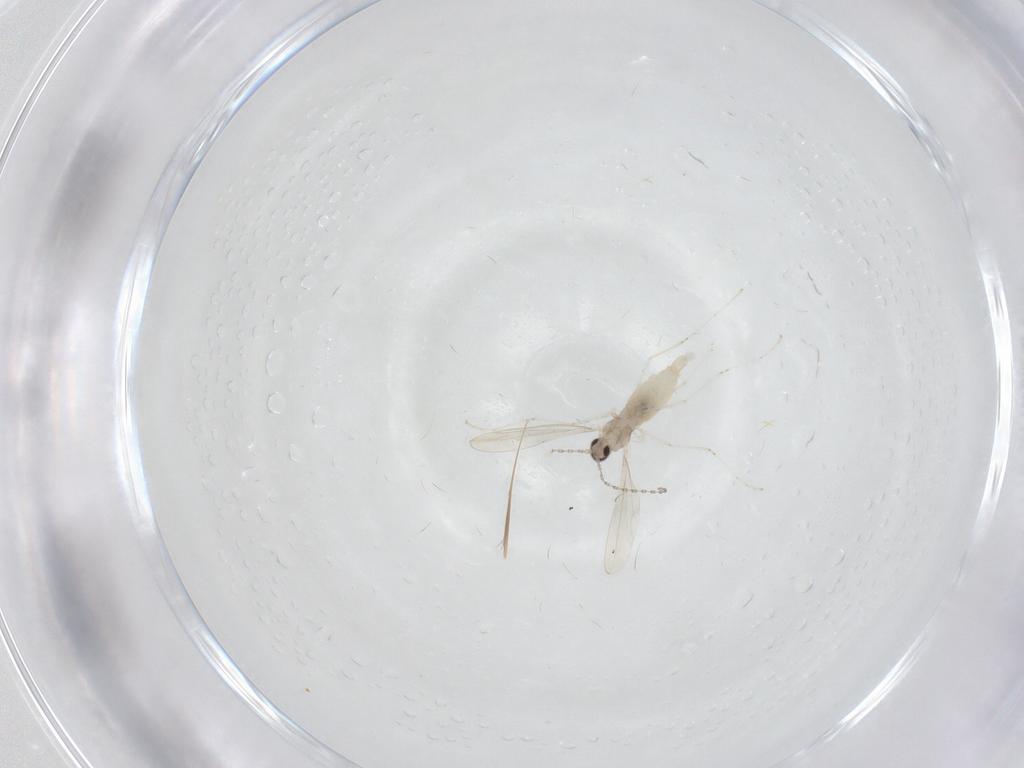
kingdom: Animalia
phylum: Arthropoda
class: Insecta
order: Diptera
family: Cecidomyiidae
